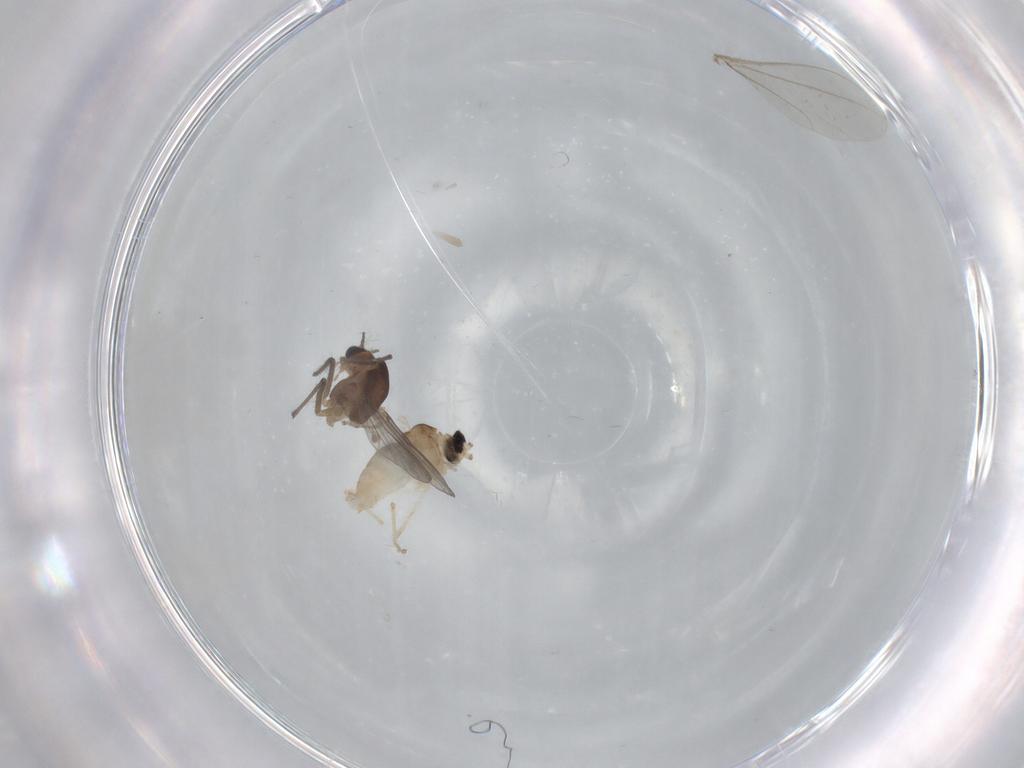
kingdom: Animalia
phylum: Arthropoda
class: Insecta
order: Diptera
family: Cecidomyiidae
